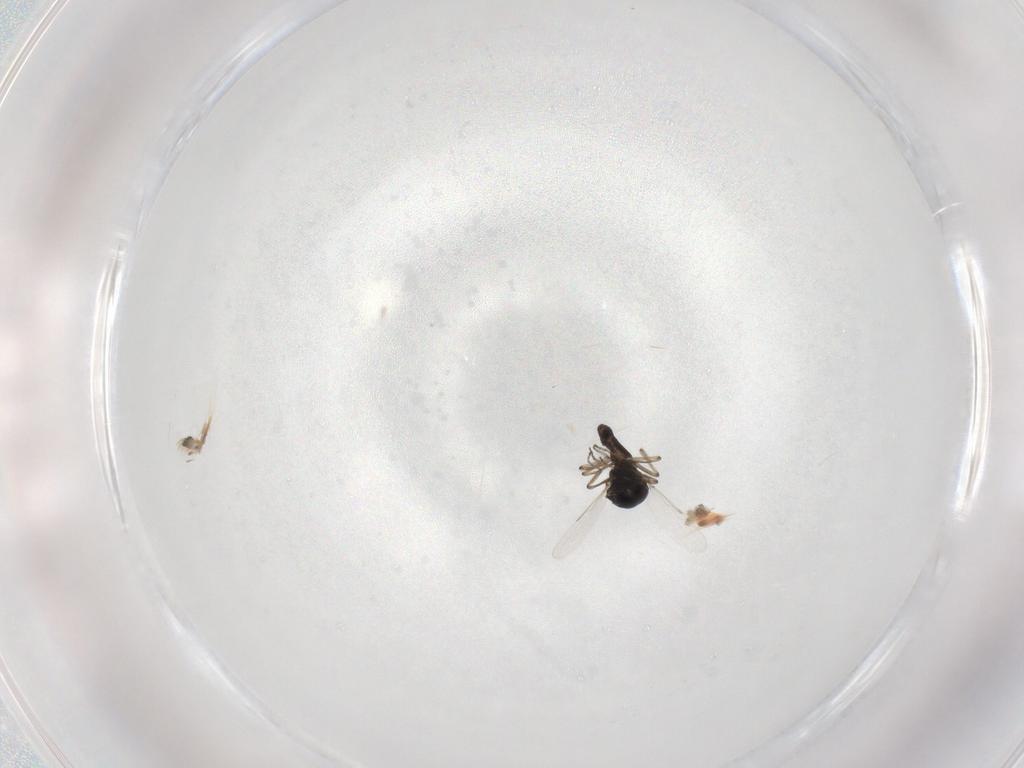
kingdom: Animalia
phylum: Arthropoda
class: Insecta
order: Diptera
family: Ceratopogonidae
